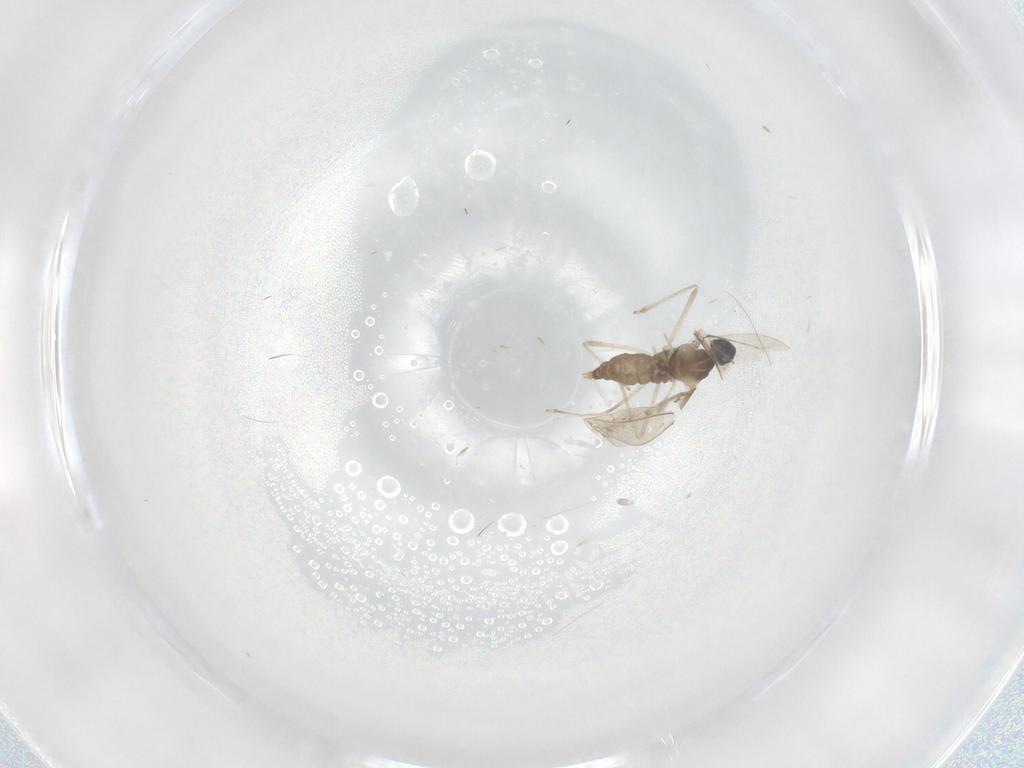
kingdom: Animalia
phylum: Arthropoda
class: Insecta
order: Diptera
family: Cecidomyiidae
